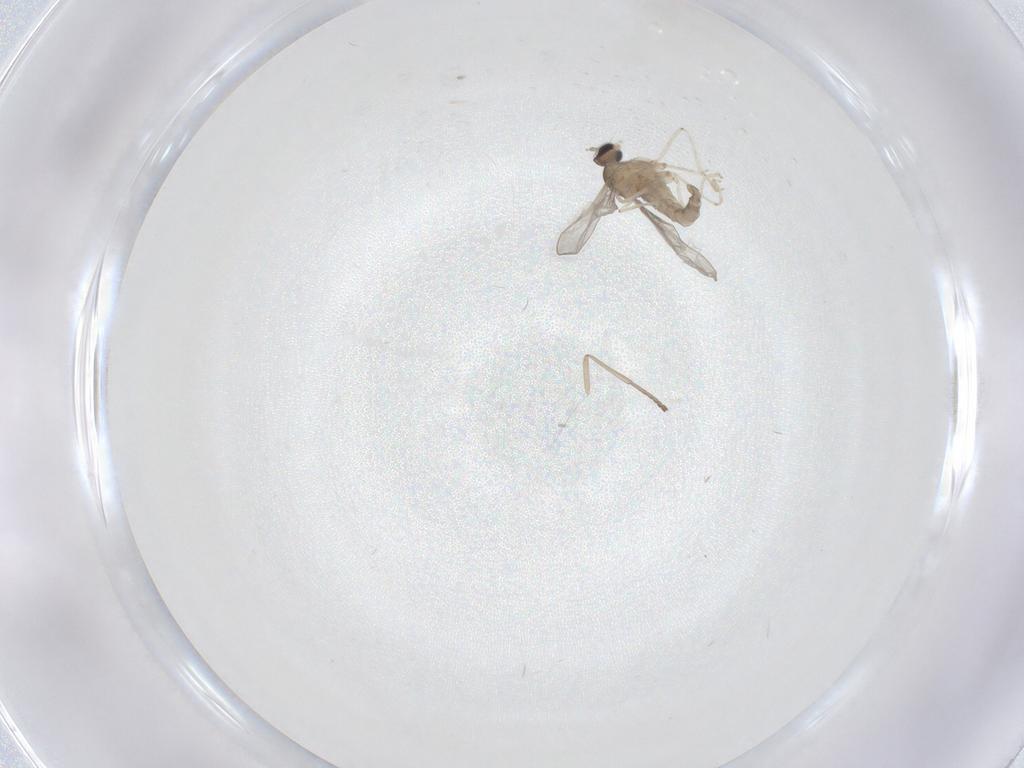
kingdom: Animalia
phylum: Arthropoda
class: Insecta
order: Diptera
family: Cecidomyiidae
